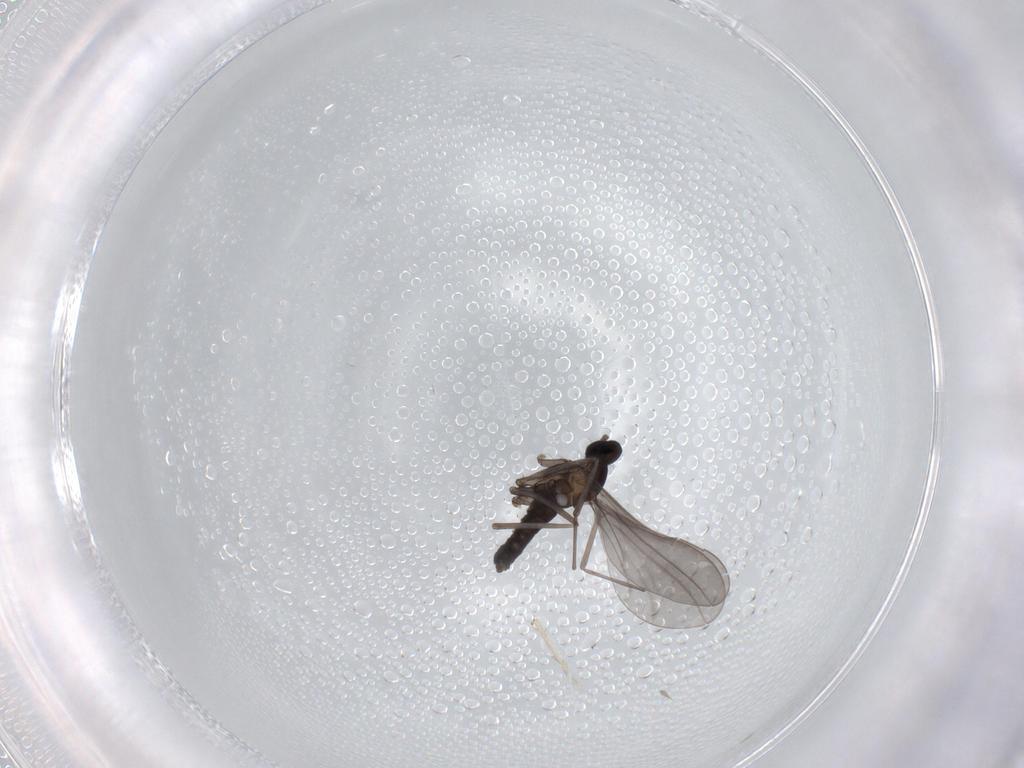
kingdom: Animalia
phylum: Arthropoda
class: Insecta
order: Diptera
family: Cecidomyiidae
